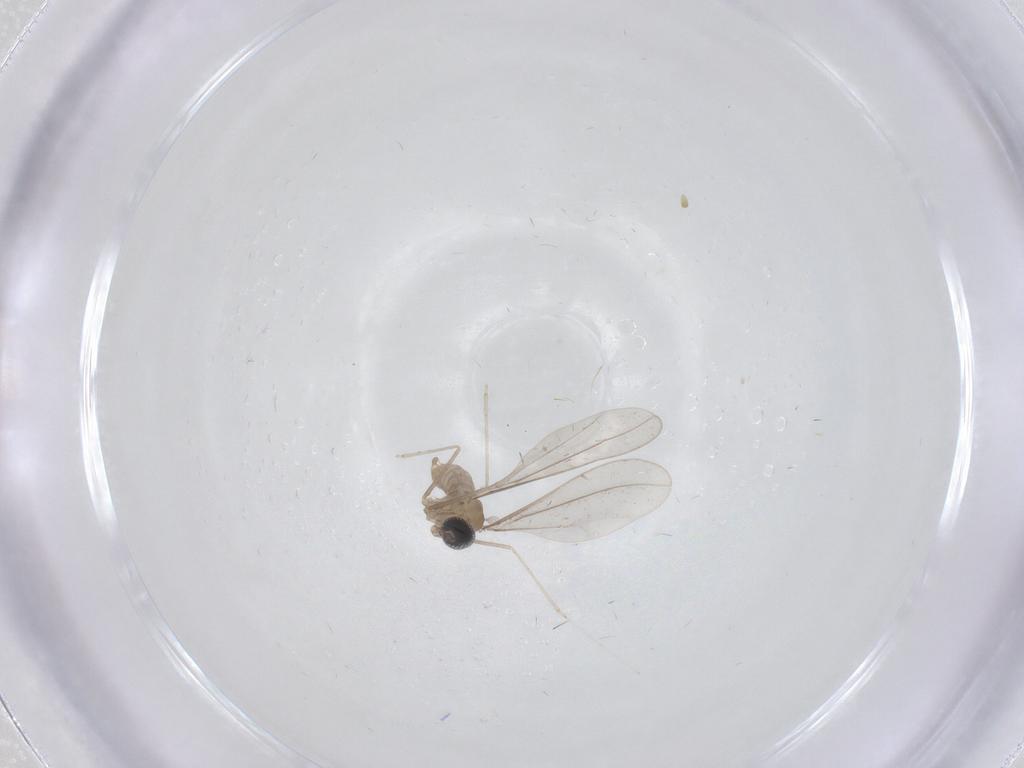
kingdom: Animalia
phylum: Arthropoda
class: Insecta
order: Diptera
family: Ceratopogonidae
